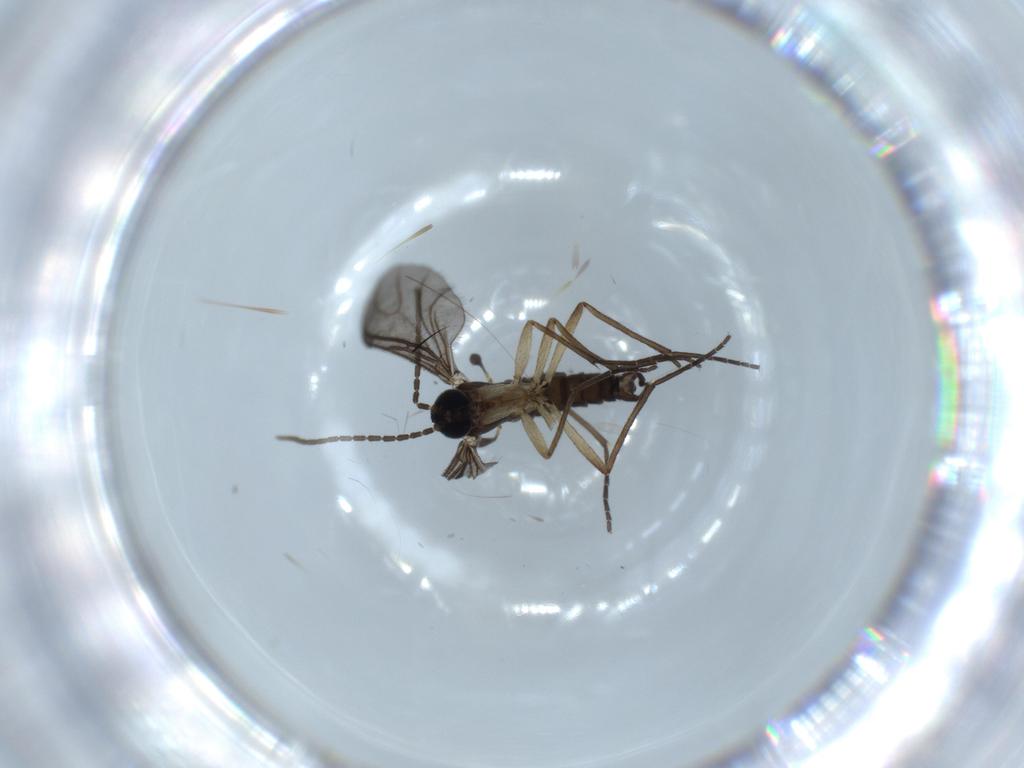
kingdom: Animalia
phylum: Arthropoda
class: Insecta
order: Diptera
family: Sciaridae
